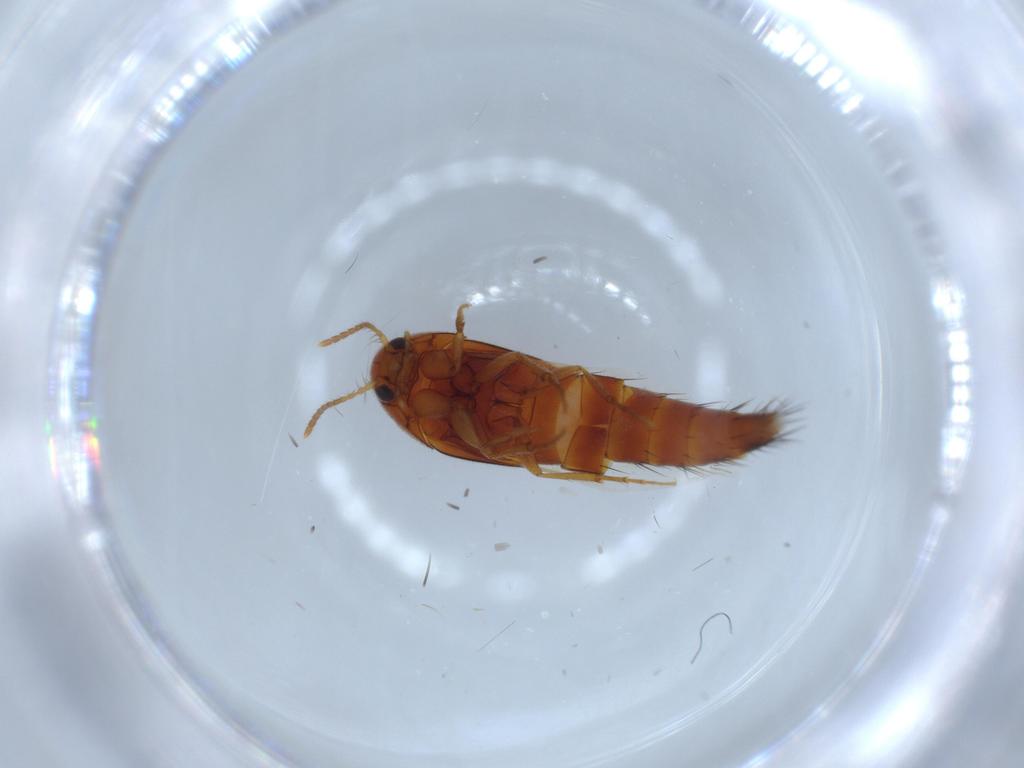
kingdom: Animalia
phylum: Arthropoda
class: Insecta
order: Coleoptera
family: Staphylinidae
